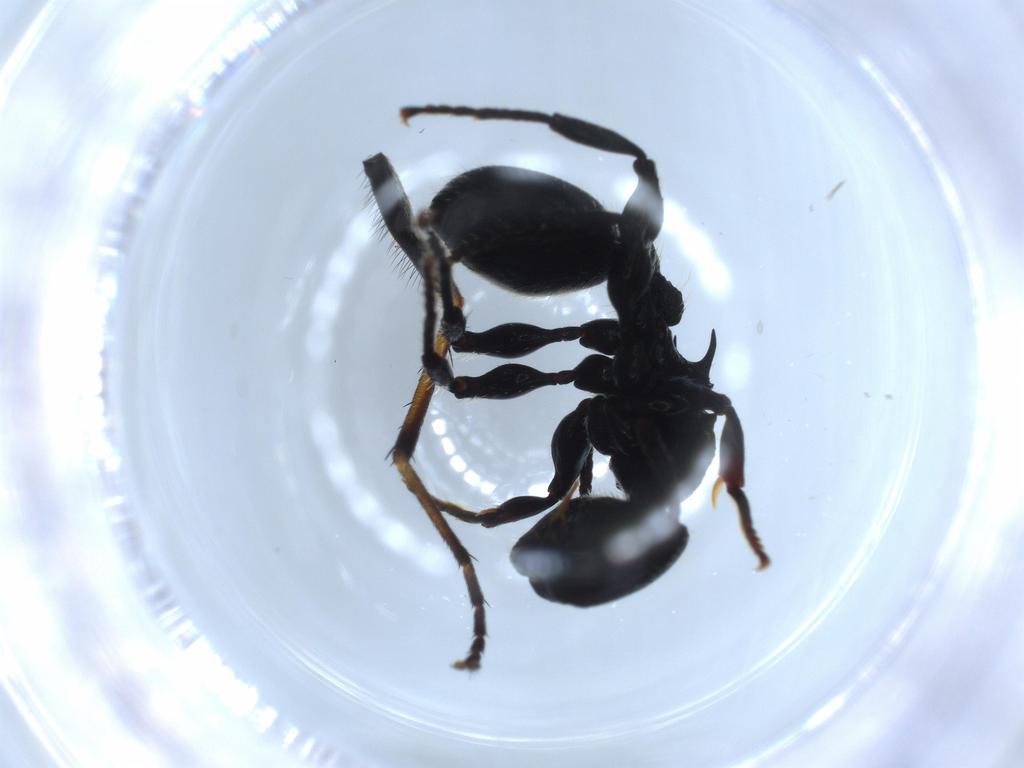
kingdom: Animalia
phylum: Arthropoda
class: Insecta
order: Hymenoptera
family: Formicidae
